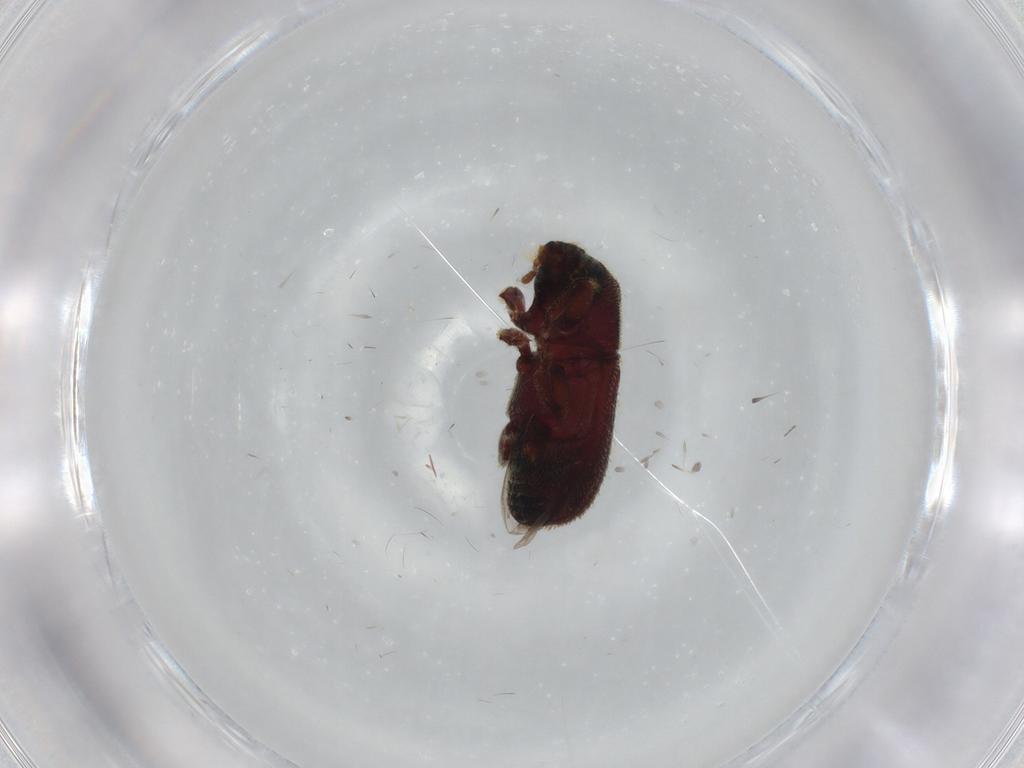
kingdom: Animalia
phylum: Arthropoda
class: Insecta
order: Coleoptera
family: Curculionidae
